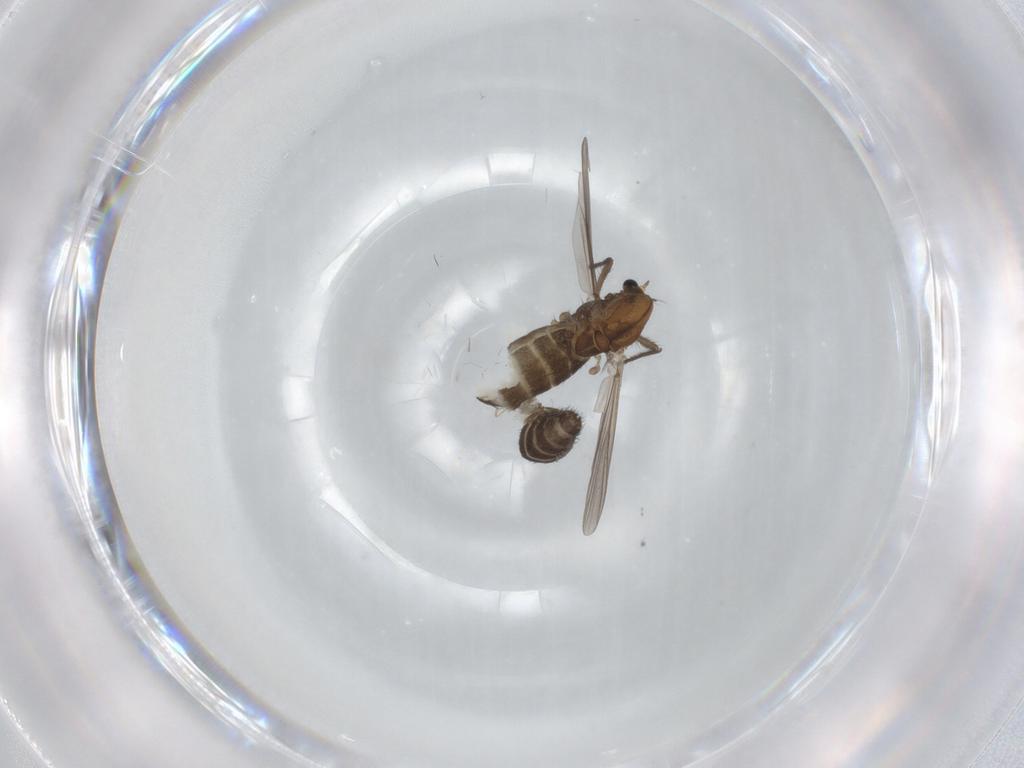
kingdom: Animalia
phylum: Arthropoda
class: Insecta
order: Diptera
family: Chironomidae
